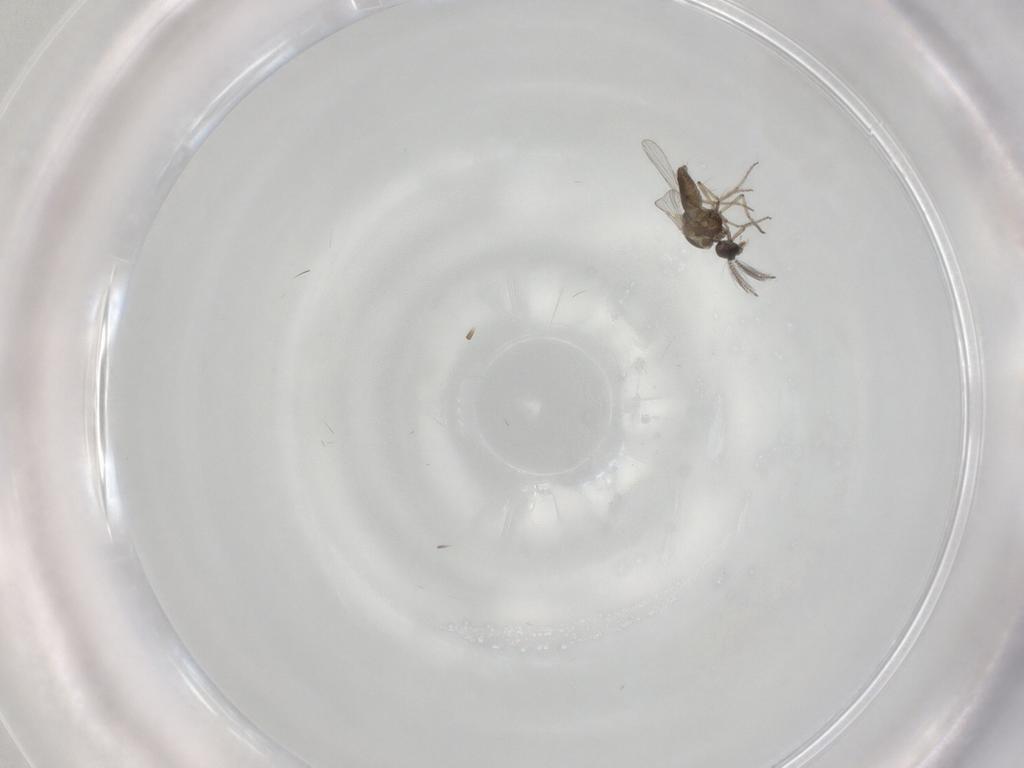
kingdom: Animalia
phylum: Arthropoda
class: Insecta
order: Diptera
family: Ceratopogonidae
